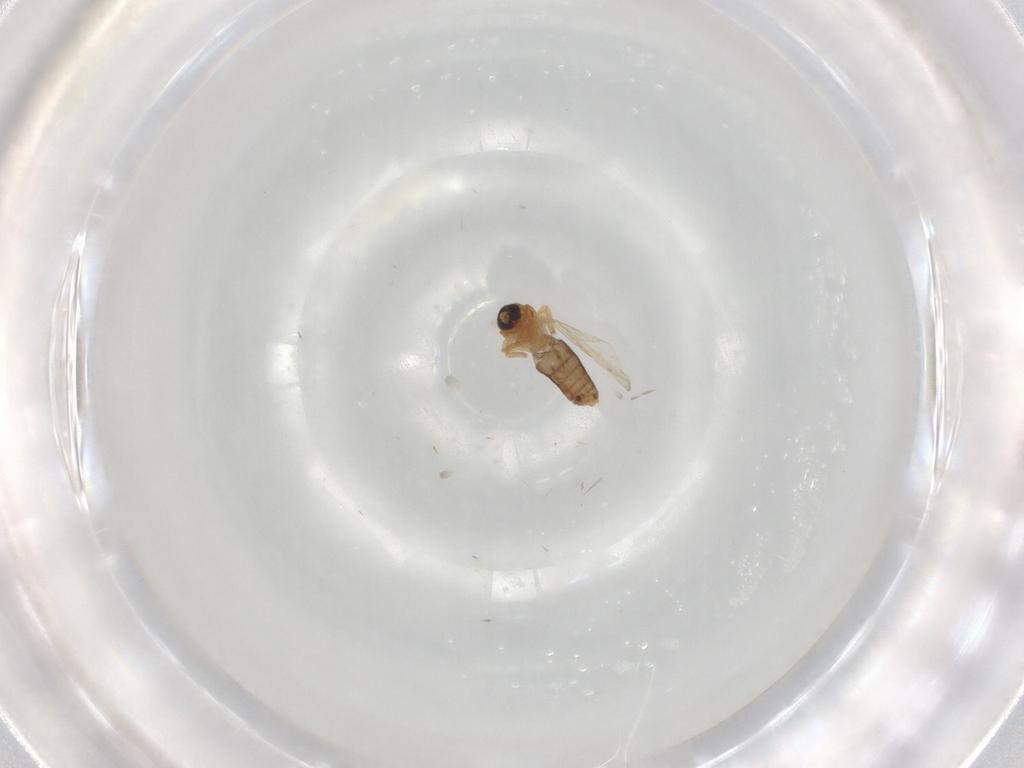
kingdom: Animalia
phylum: Arthropoda
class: Insecta
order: Diptera
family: Ceratopogonidae
